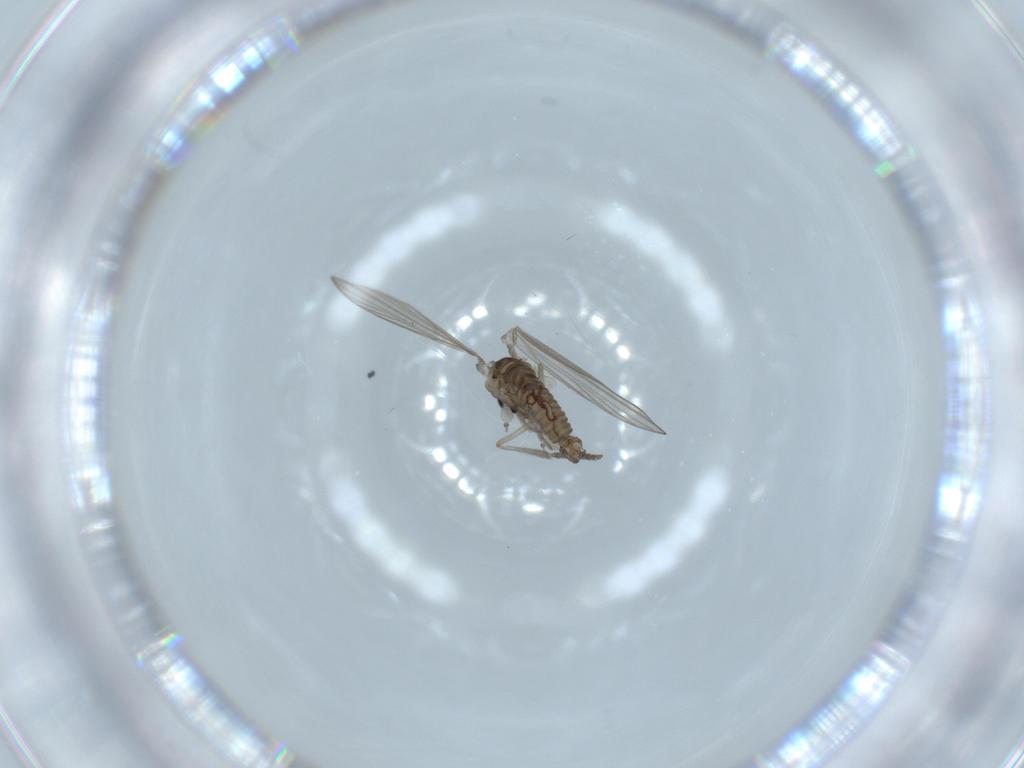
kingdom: Animalia
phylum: Arthropoda
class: Insecta
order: Diptera
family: Psychodidae
